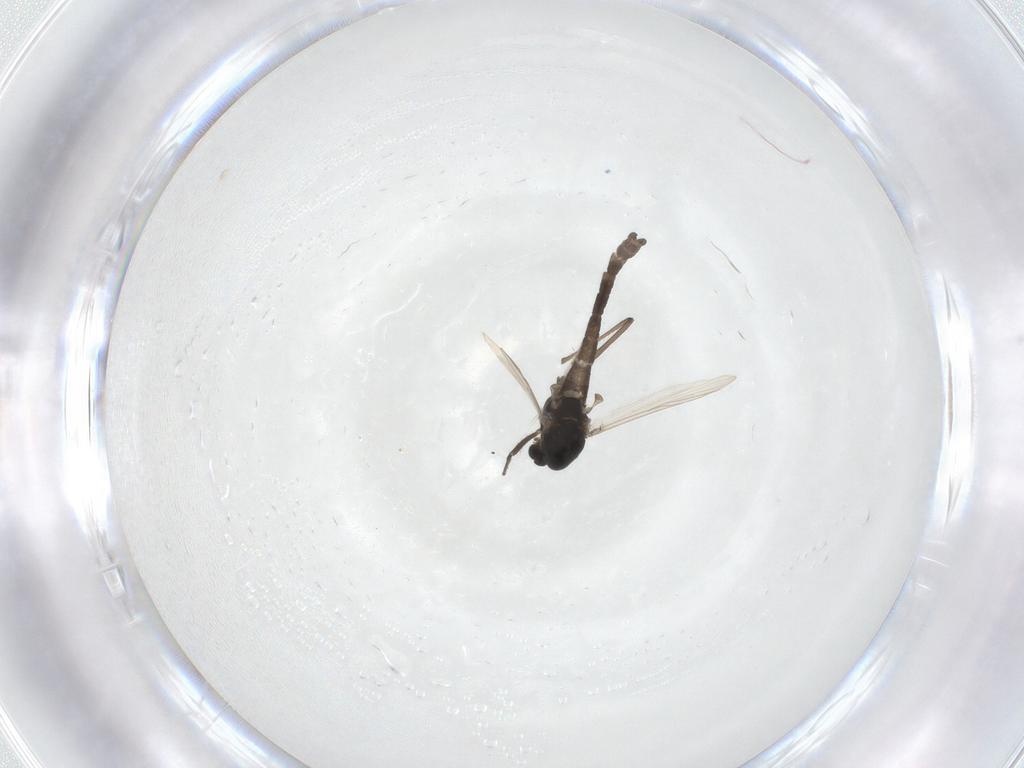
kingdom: Animalia
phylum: Arthropoda
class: Insecta
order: Diptera
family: Chironomidae
